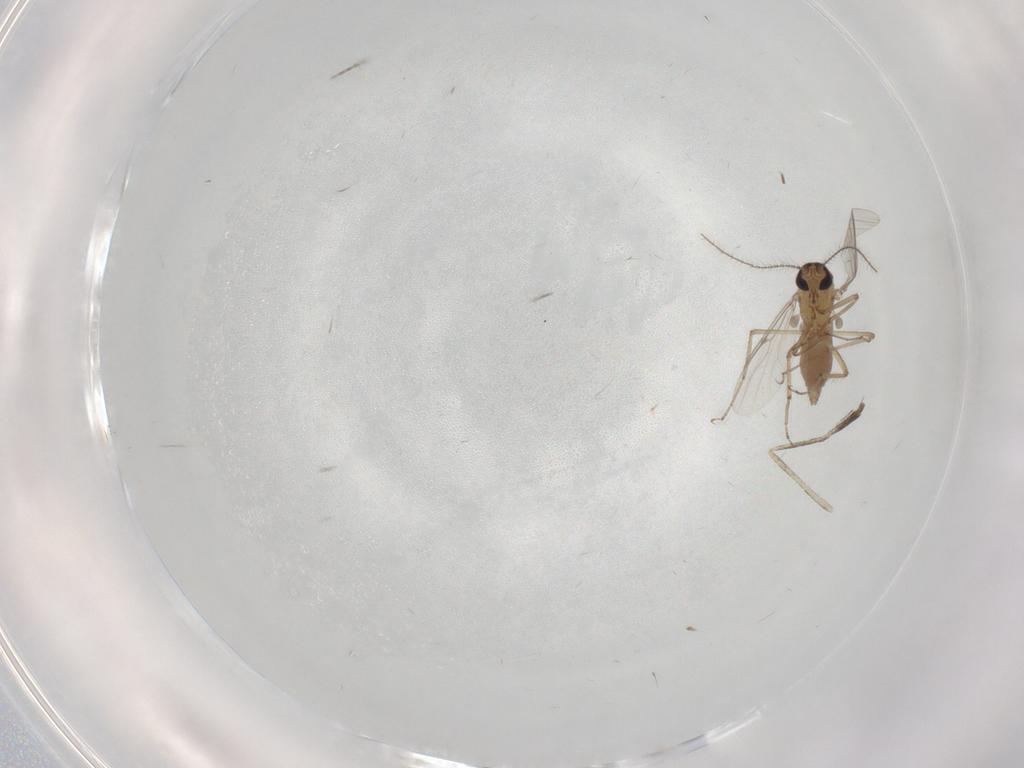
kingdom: Animalia
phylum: Arthropoda
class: Insecta
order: Diptera
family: Ceratopogonidae
